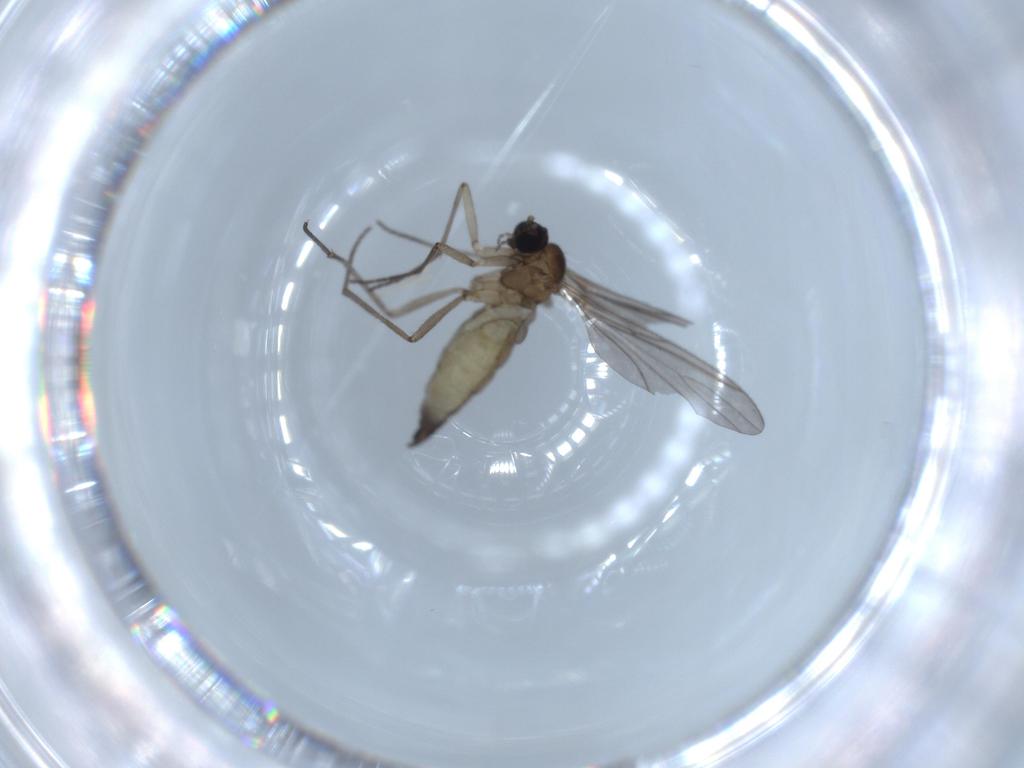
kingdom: Animalia
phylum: Arthropoda
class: Insecta
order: Diptera
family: Sciaridae
